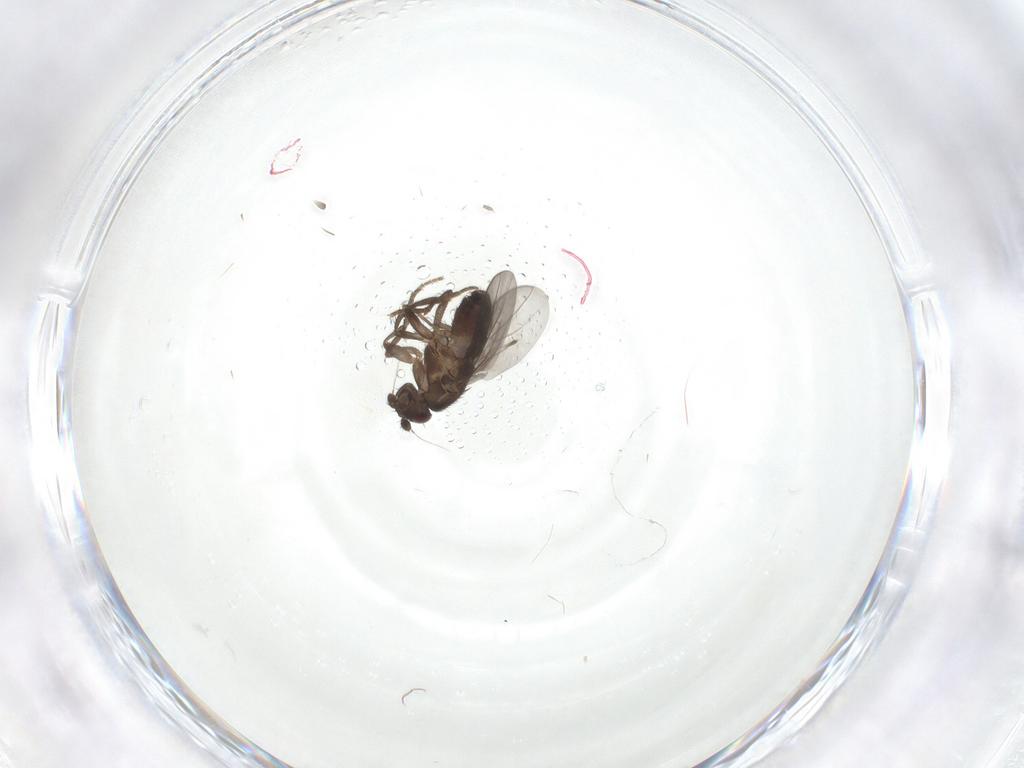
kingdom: Animalia
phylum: Arthropoda
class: Insecta
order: Diptera
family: Sphaeroceridae
